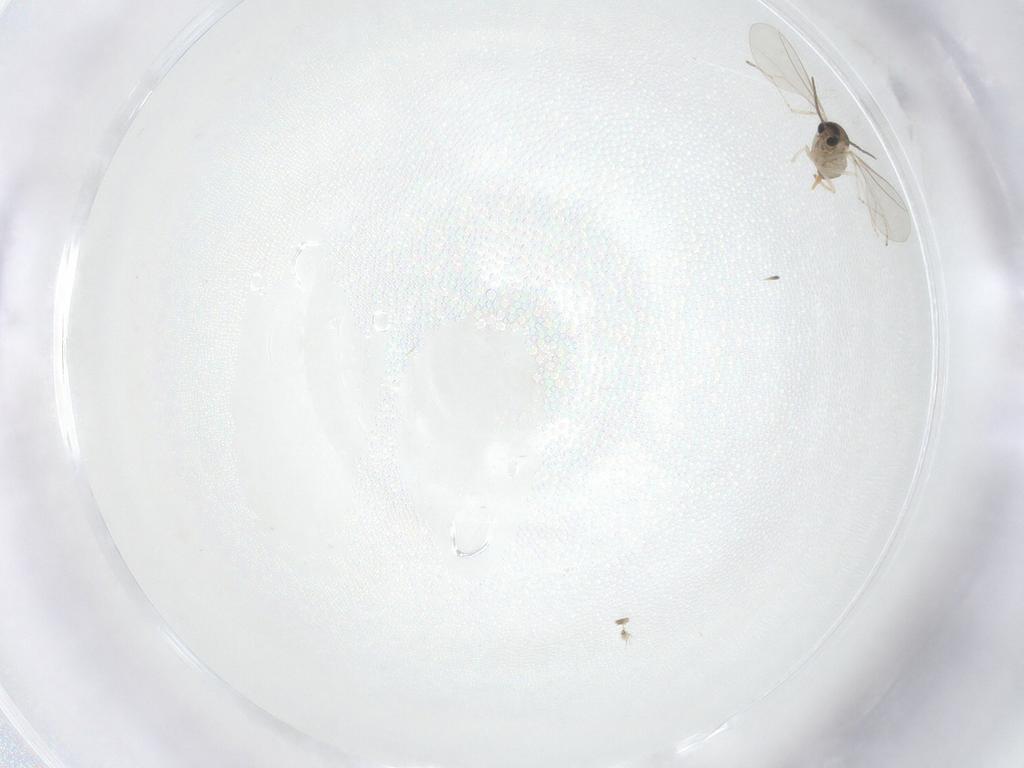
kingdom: Animalia
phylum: Arthropoda
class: Insecta
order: Diptera
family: Cecidomyiidae
